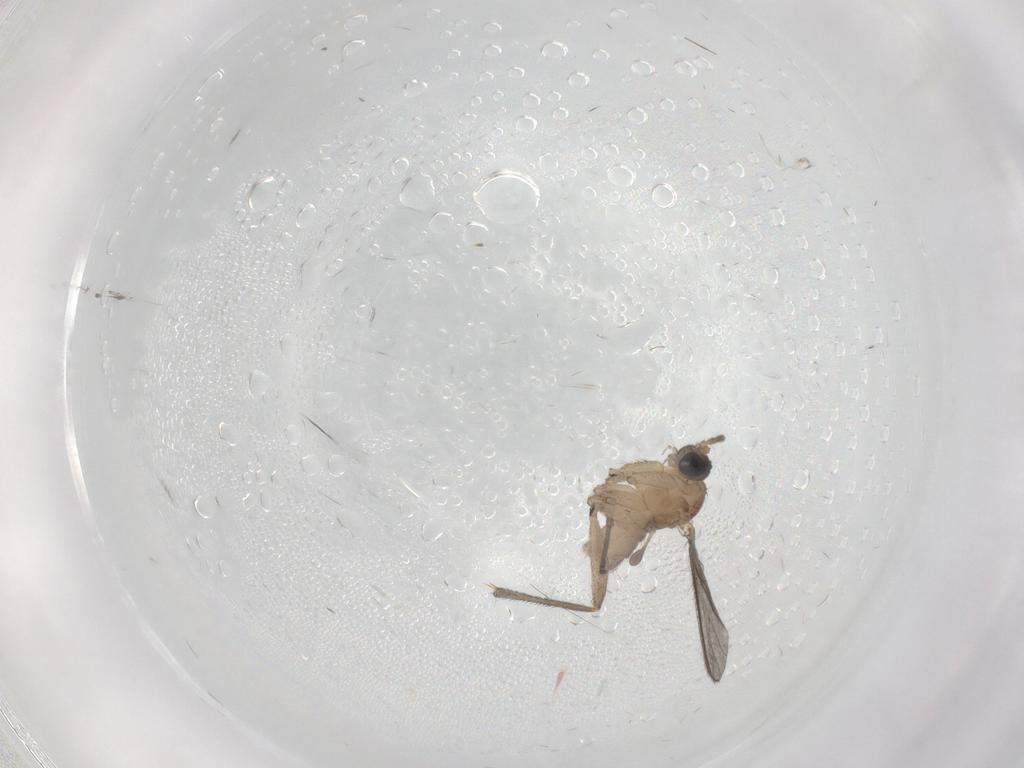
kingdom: Animalia
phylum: Arthropoda
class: Insecta
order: Diptera
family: Sciaridae
